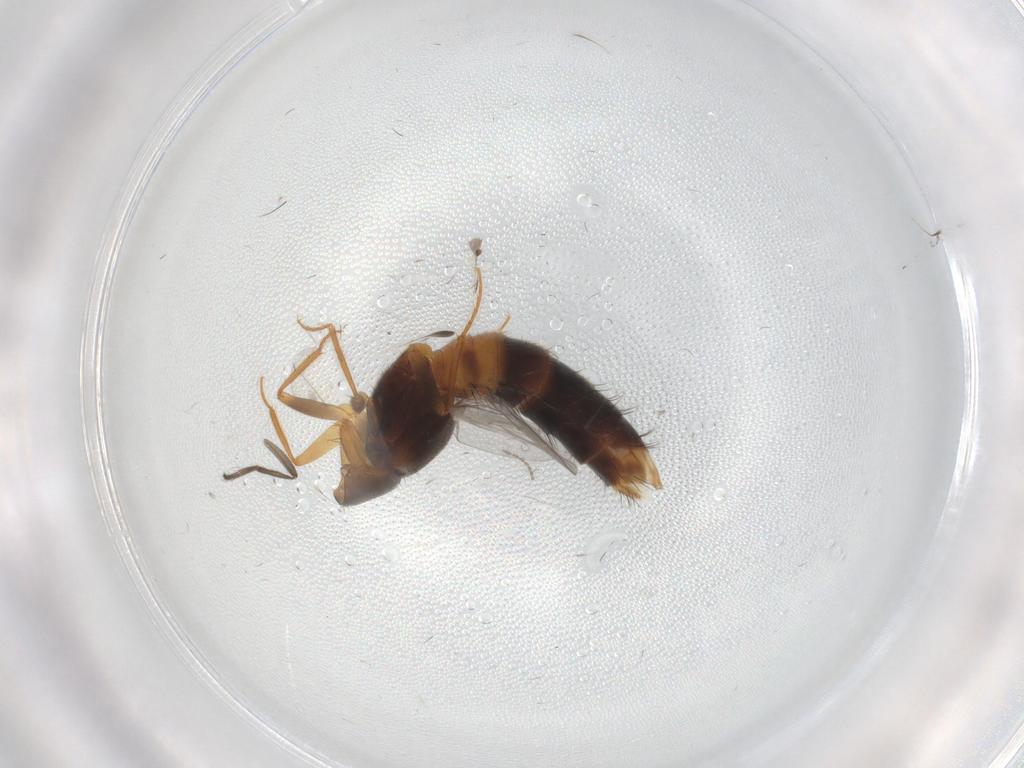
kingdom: Animalia
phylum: Arthropoda
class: Insecta
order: Coleoptera
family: Staphylinidae
